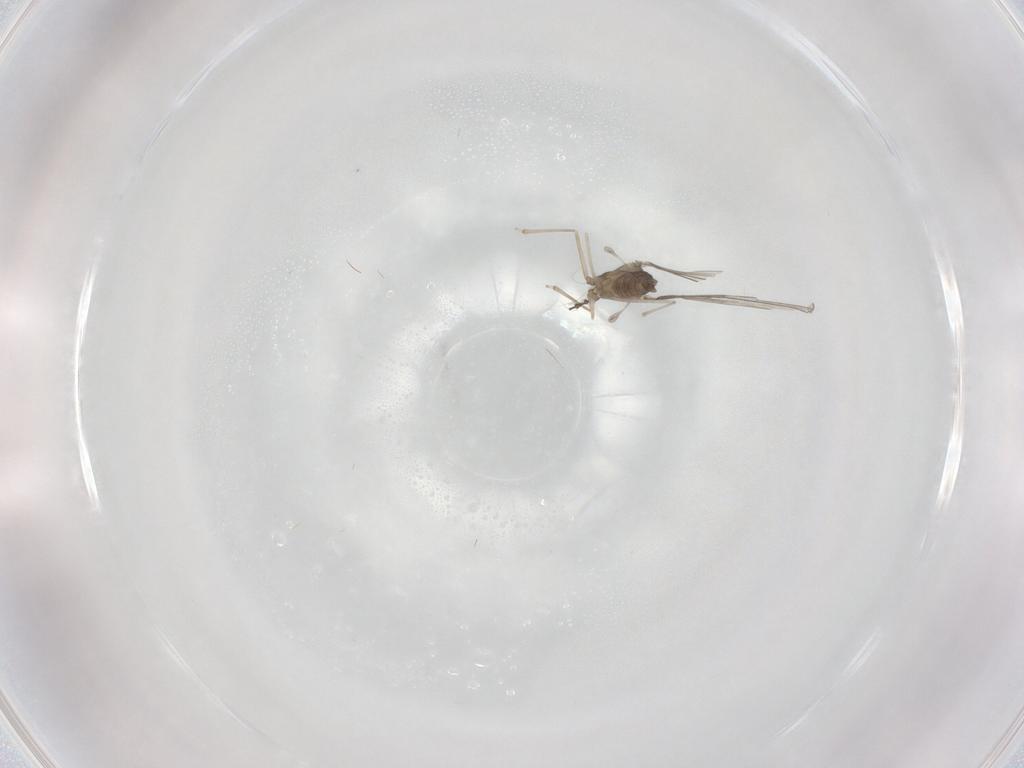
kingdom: Animalia
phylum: Arthropoda
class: Insecta
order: Diptera
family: Cecidomyiidae
